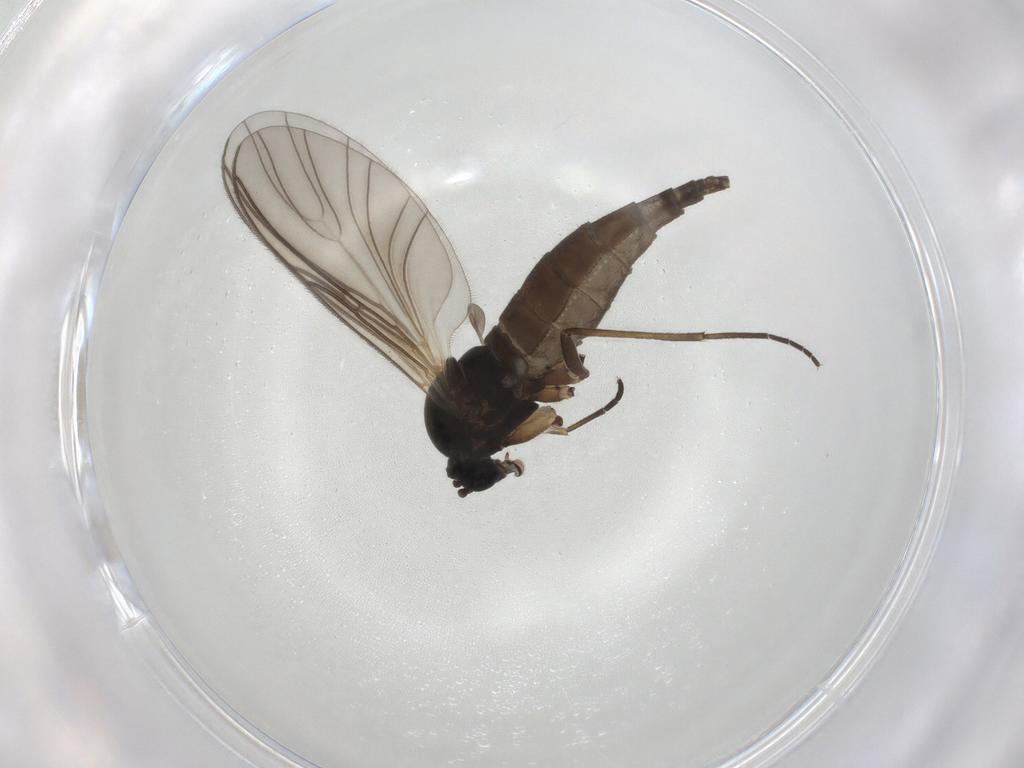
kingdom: Animalia
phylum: Arthropoda
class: Insecta
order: Diptera
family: Sciaridae
